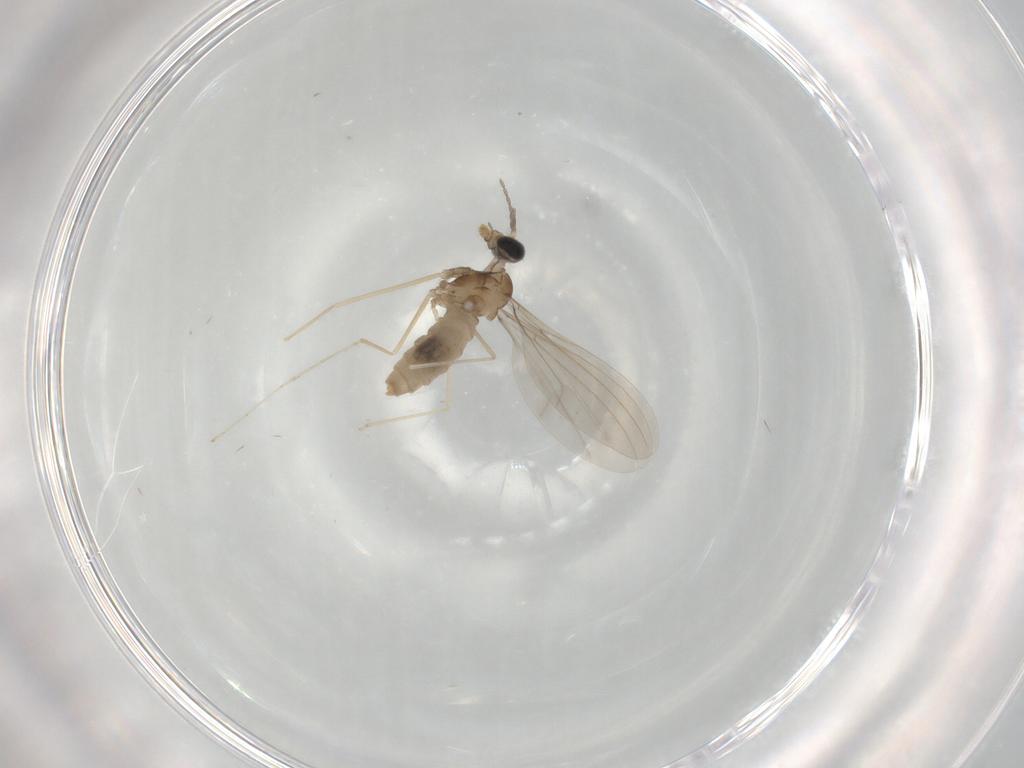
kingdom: Animalia
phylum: Arthropoda
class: Insecta
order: Diptera
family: Cecidomyiidae
